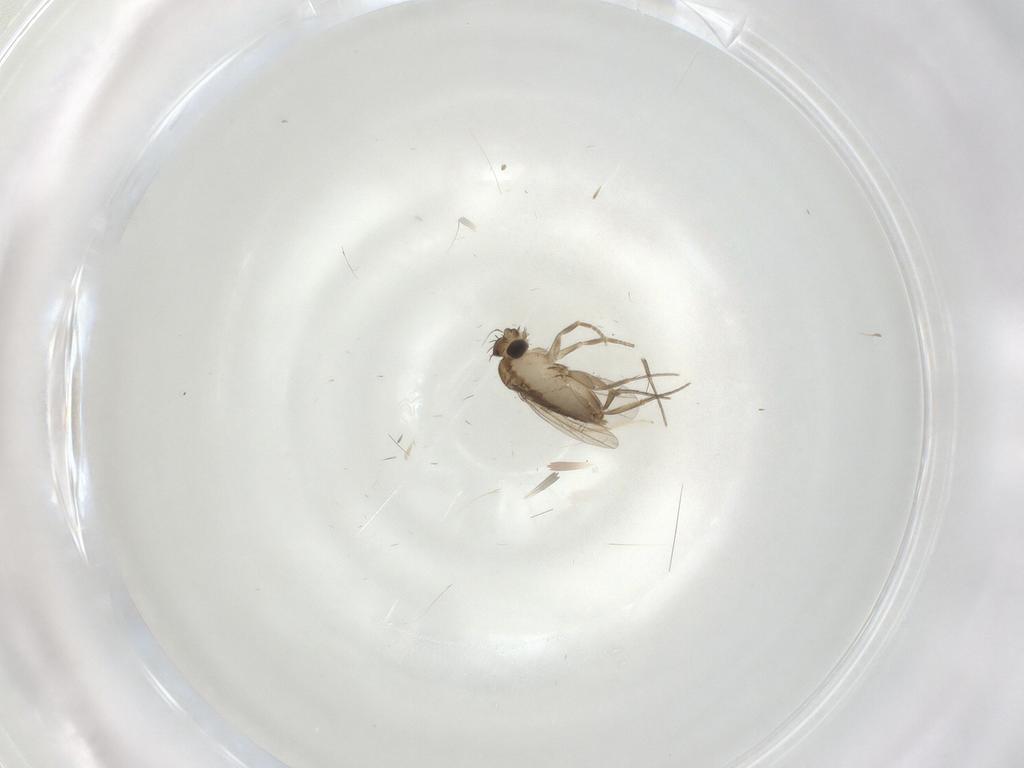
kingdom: Animalia
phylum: Arthropoda
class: Insecta
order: Diptera
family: Phoridae
